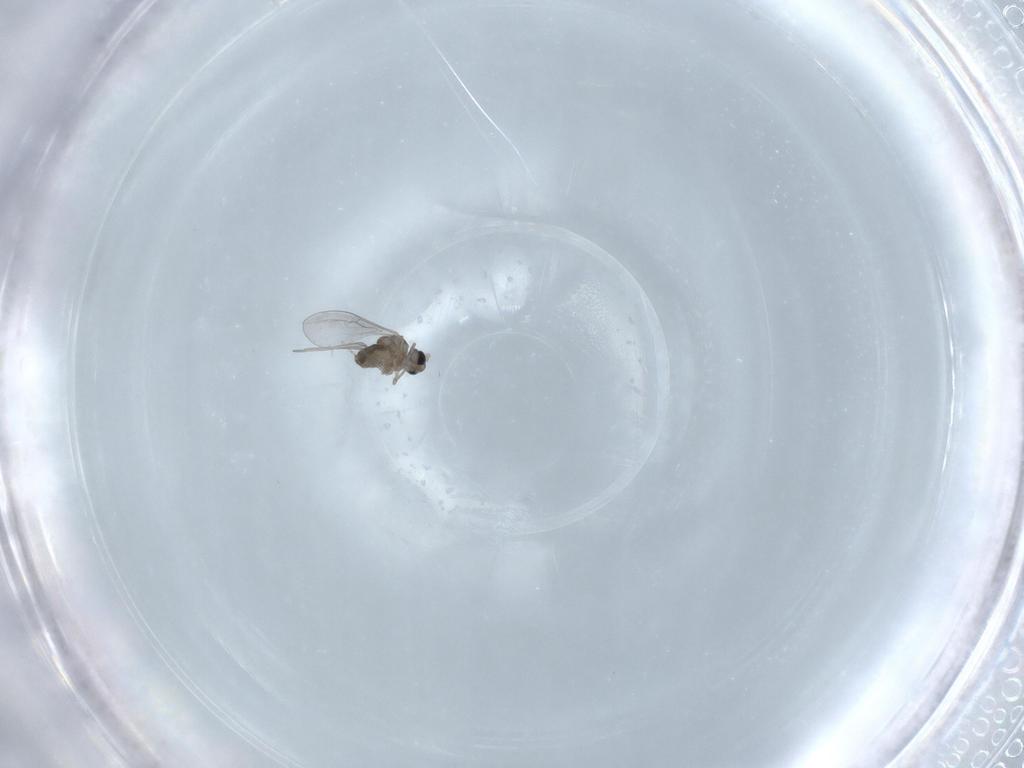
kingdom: Animalia
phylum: Arthropoda
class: Insecta
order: Diptera
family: Cecidomyiidae
